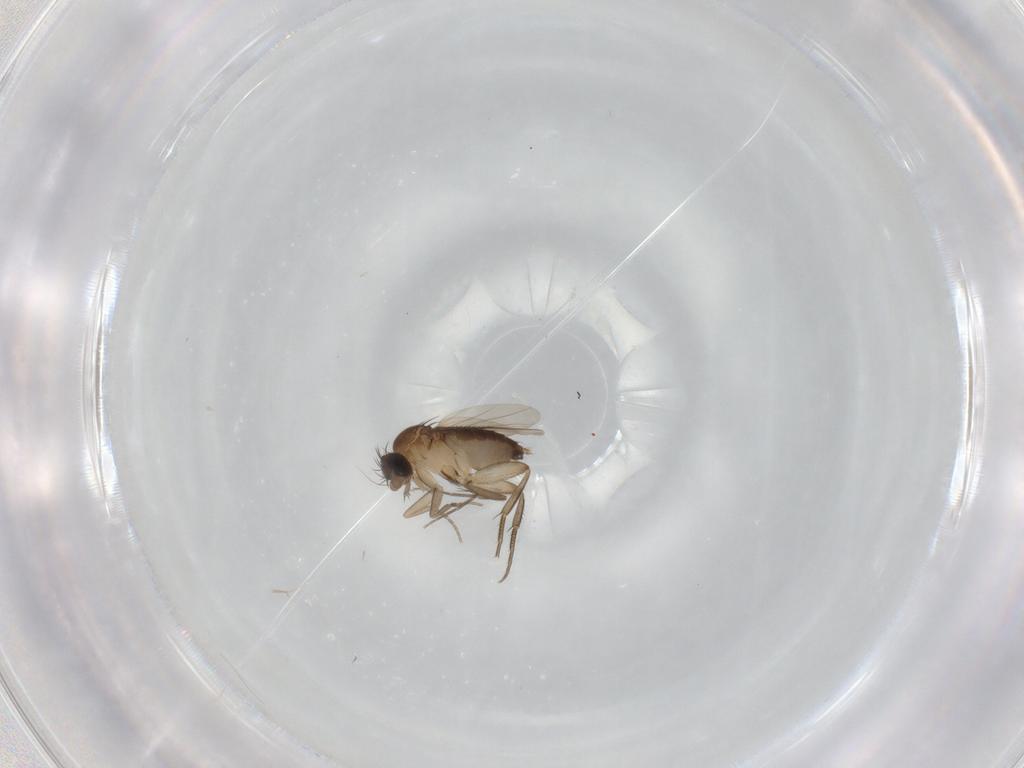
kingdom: Animalia
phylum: Arthropoda
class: Insecta
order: Diptera
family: Phoridae
